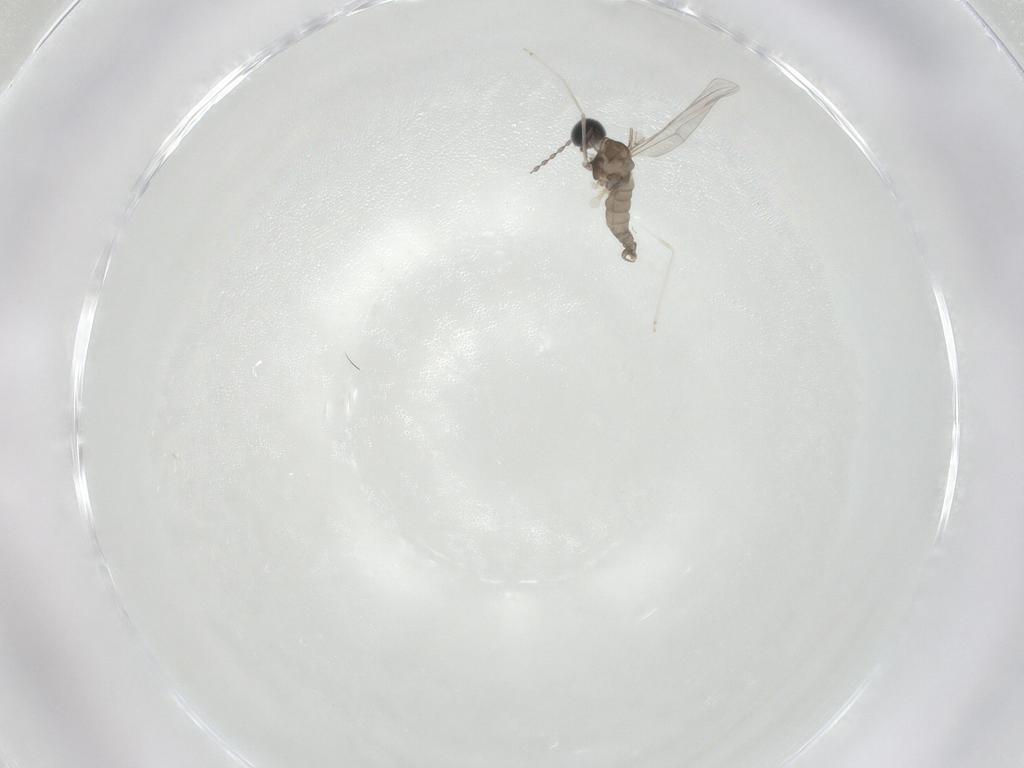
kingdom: Animalia
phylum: Arthropoda
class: Insecta
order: Diptera
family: Cecidomyiidae
